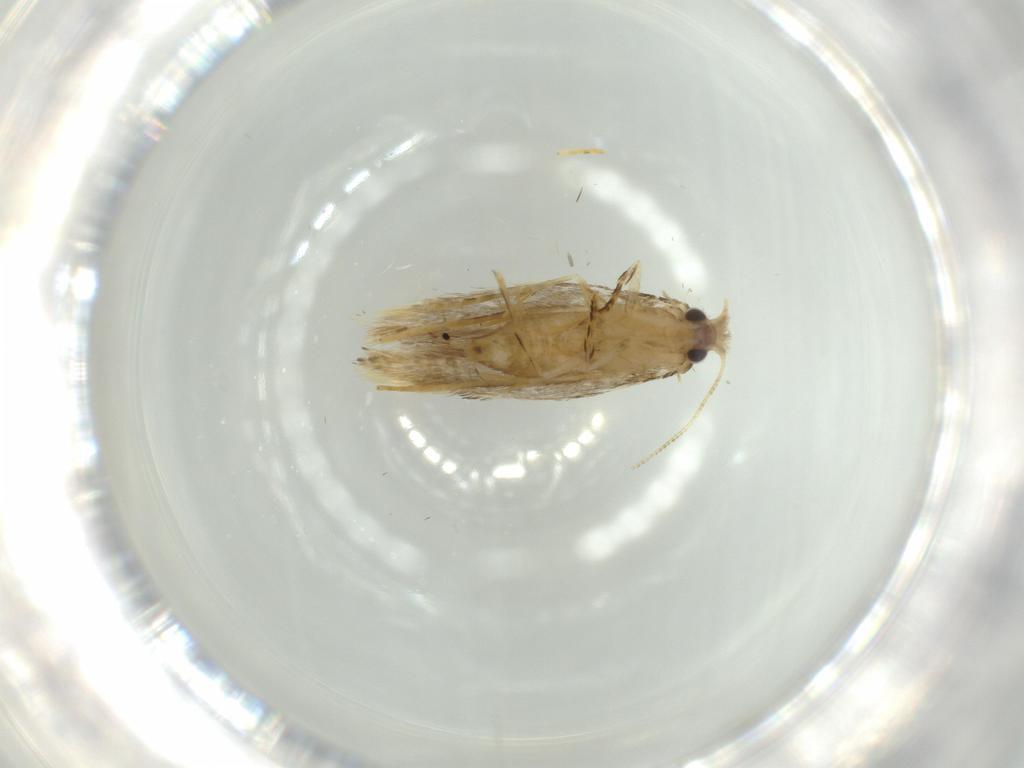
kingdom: Animalia
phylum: Arthropoda
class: Insecta
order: Lepidoptera
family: Tineidae
